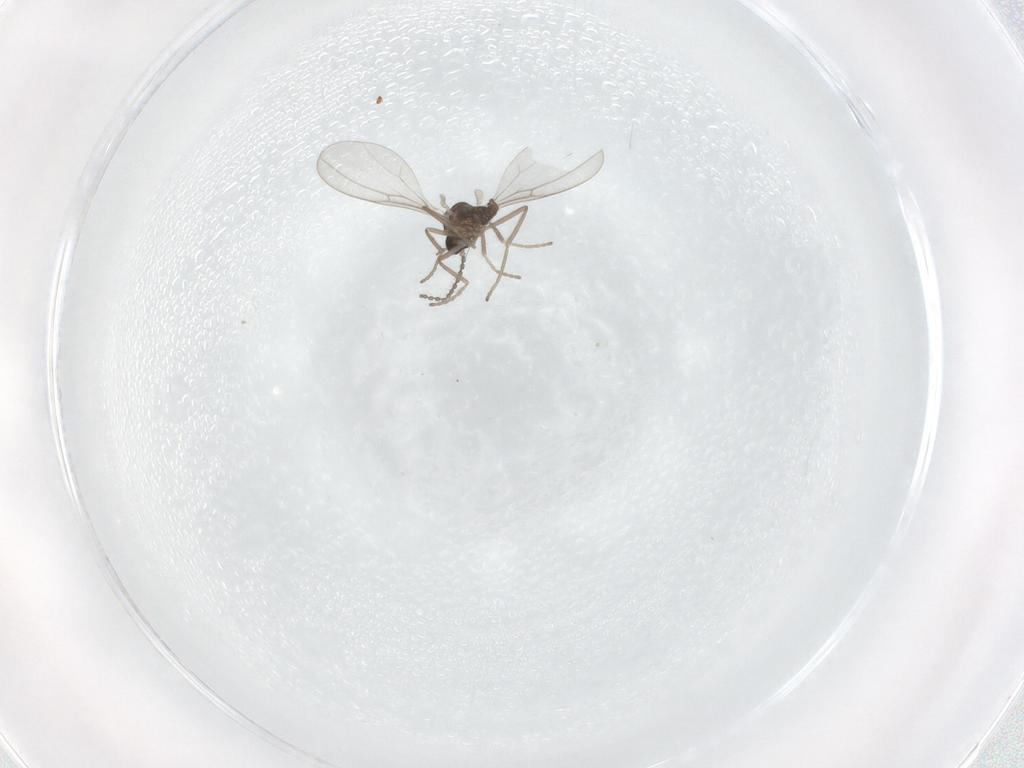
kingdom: Animalia
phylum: Arthropoda
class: Insecta
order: Diptera
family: Cecidomyiidae
